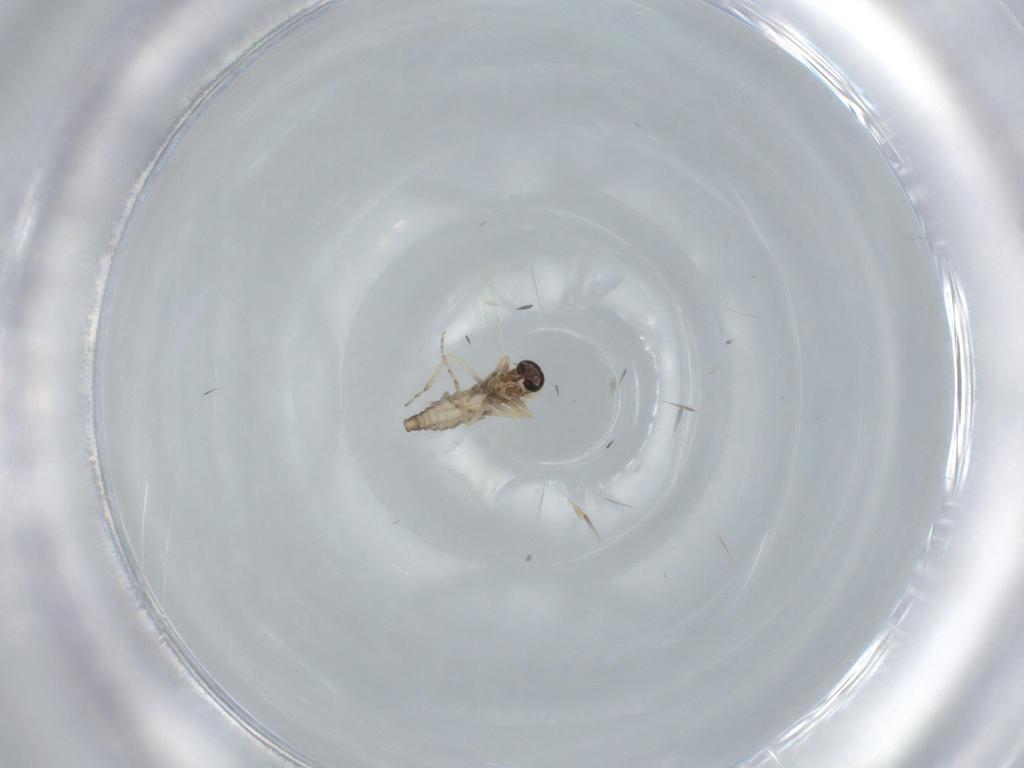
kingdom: Animalia
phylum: Arthropoda
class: Insecta
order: Diptera
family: Ceratopogonidae
